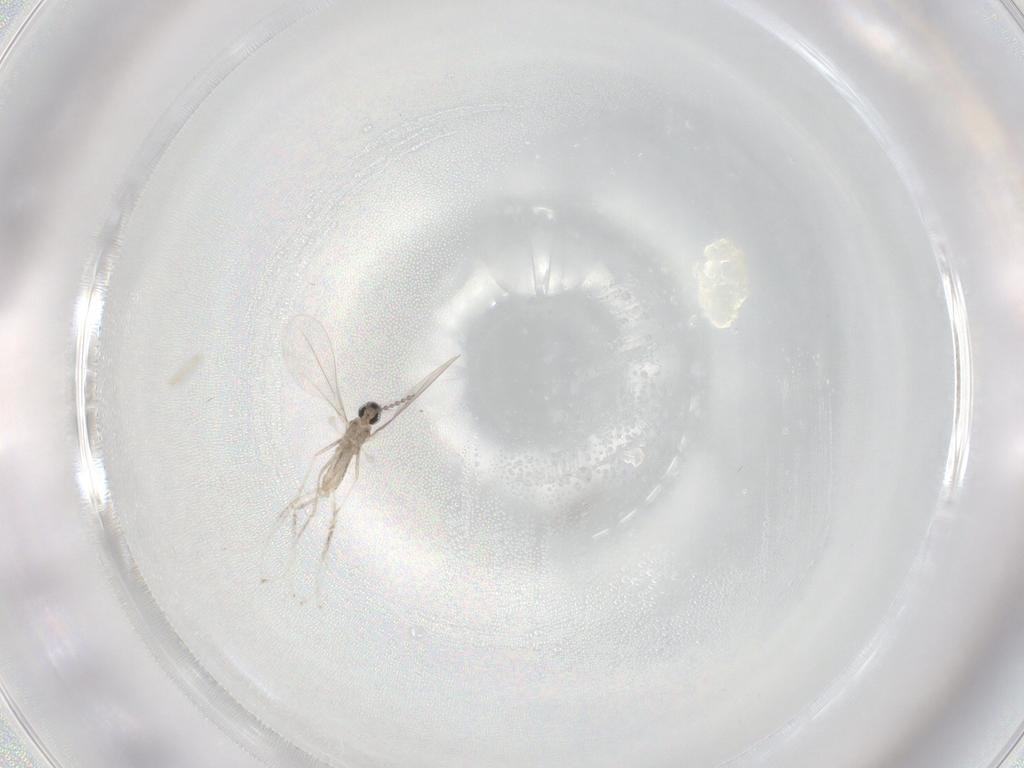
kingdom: Animalia
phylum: Arthropoda
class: Insecta
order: Diptera
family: Cecidomyiidae
